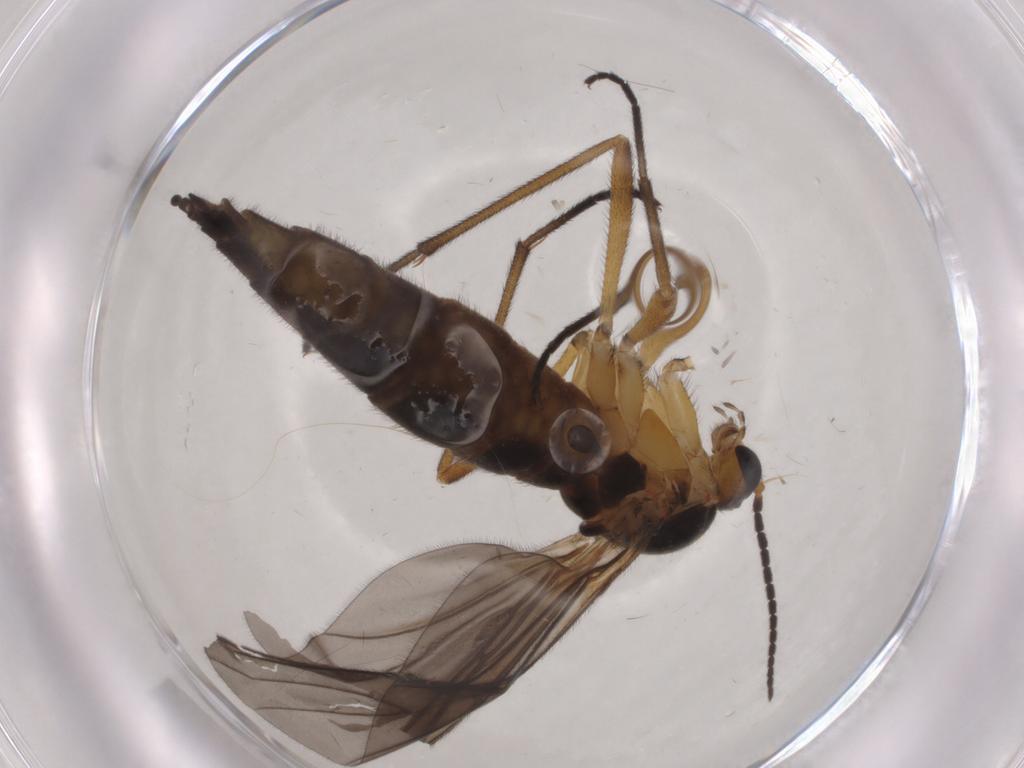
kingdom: Animalia
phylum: Arthropoda
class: Insecta
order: Diptera
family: Sciaridae
